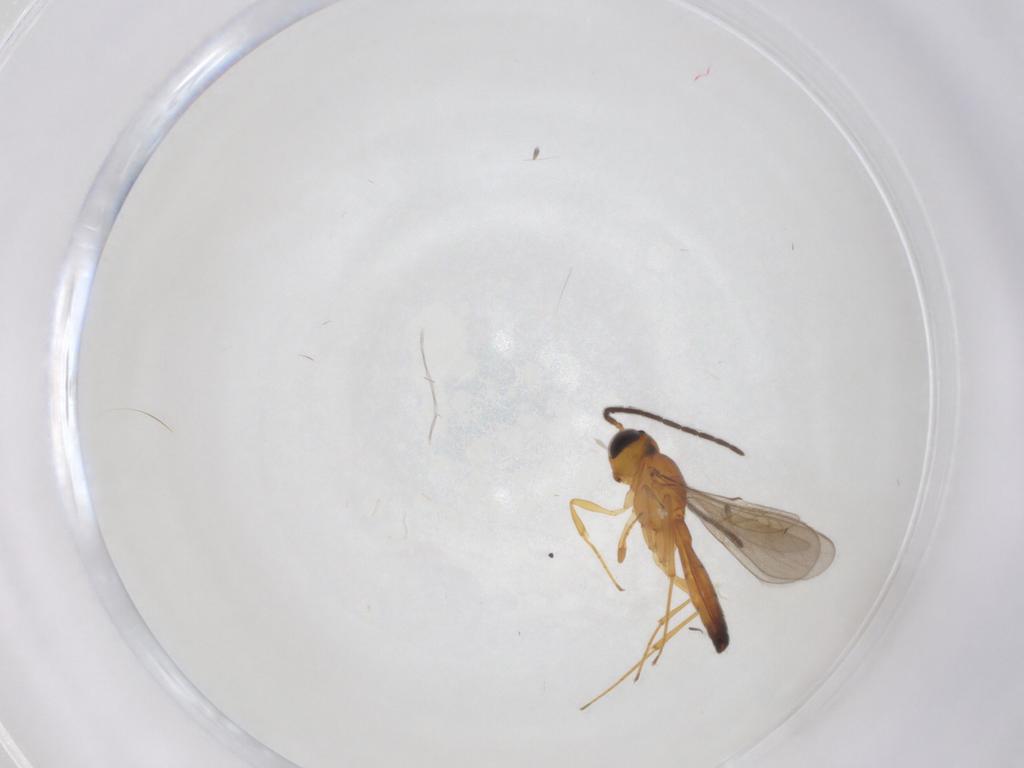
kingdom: Animalia
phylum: Arthropoda
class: Insecta
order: Hymenoptera
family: Scelionidae
